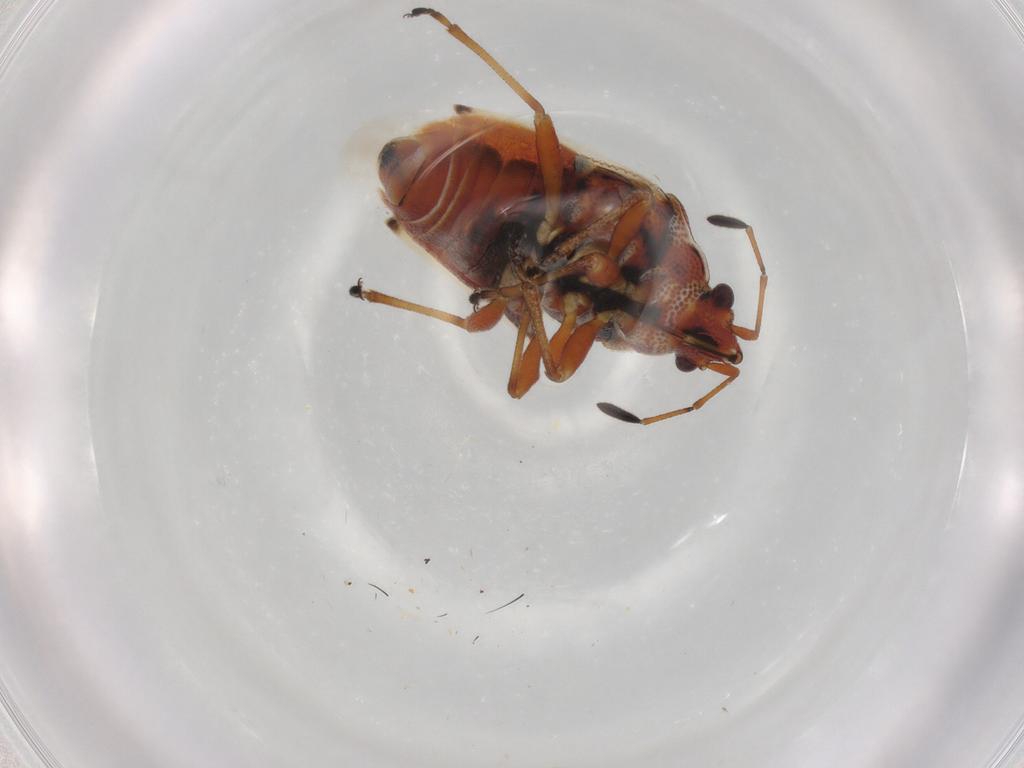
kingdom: Animalia
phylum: Arthropoda
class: Insecta
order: Hemiptera
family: Lygaeidae
